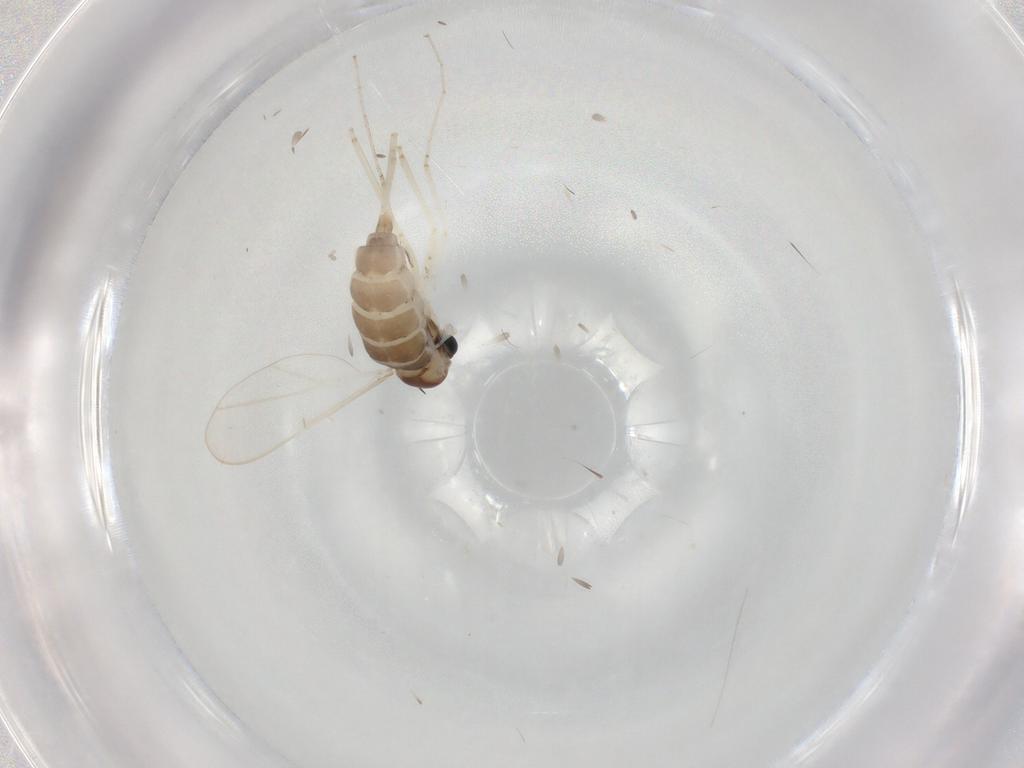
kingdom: Animalia
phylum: Arthropoda
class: Insecta
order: Diptera
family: Cecidomyiidae
